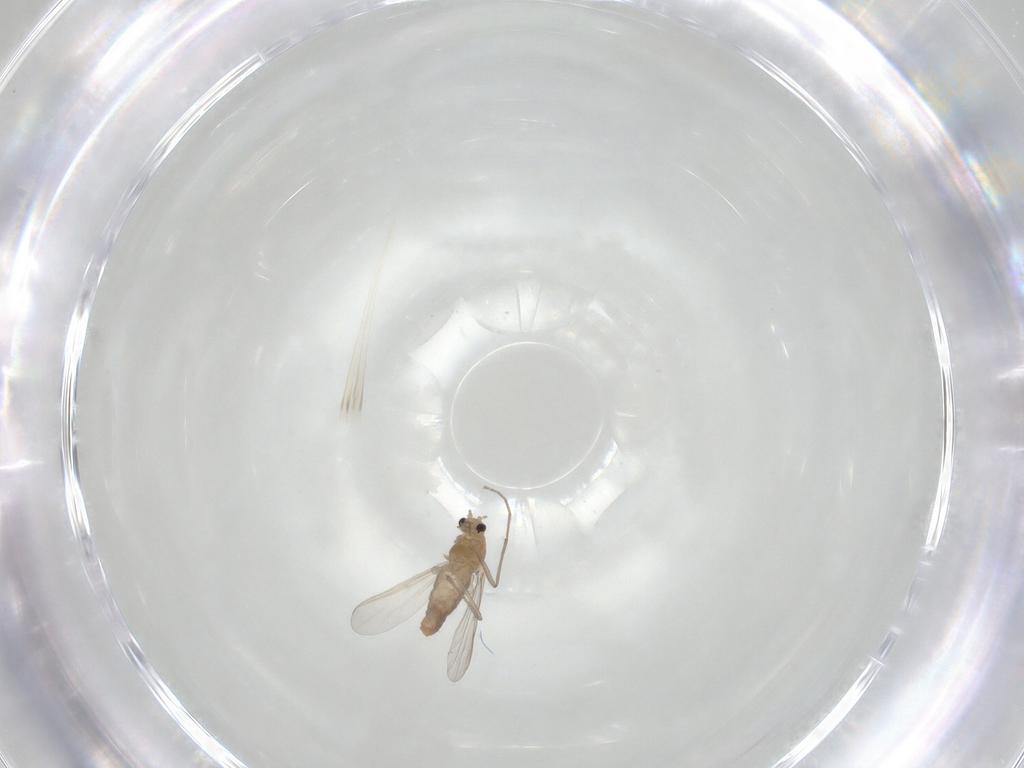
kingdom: Animalia
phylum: Arthropoda
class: Insecta
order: Diptera
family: Chironomidae
